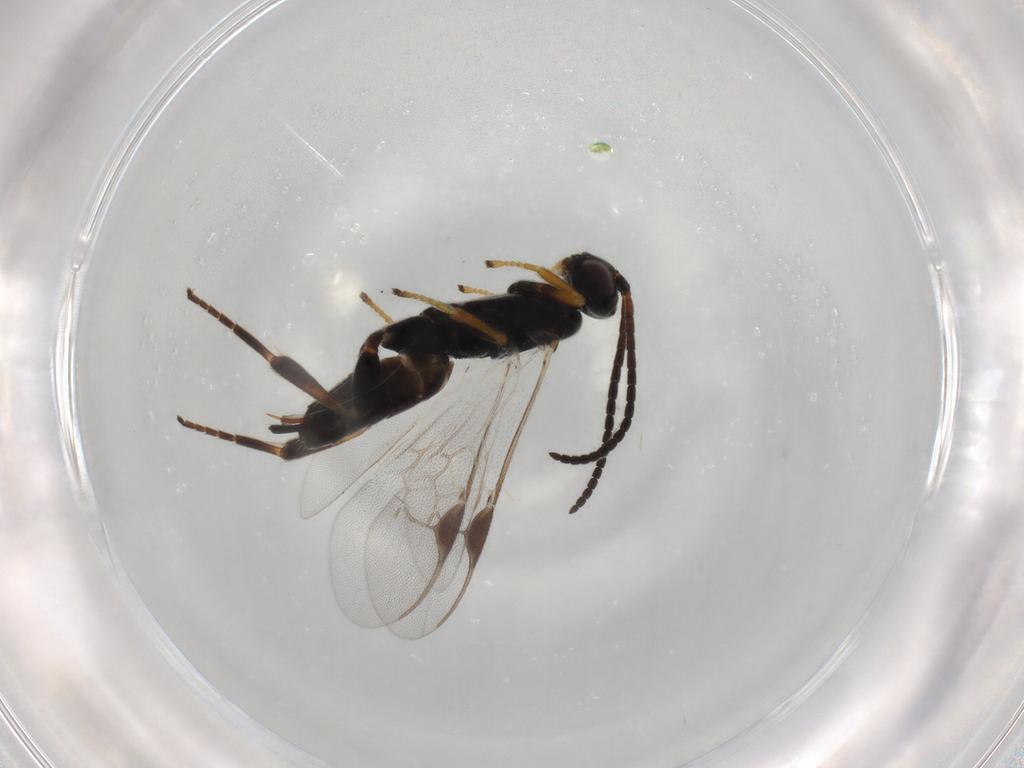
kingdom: Animalia
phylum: Arthropoda
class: Insecta
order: Hymenoptera
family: Braconidae
